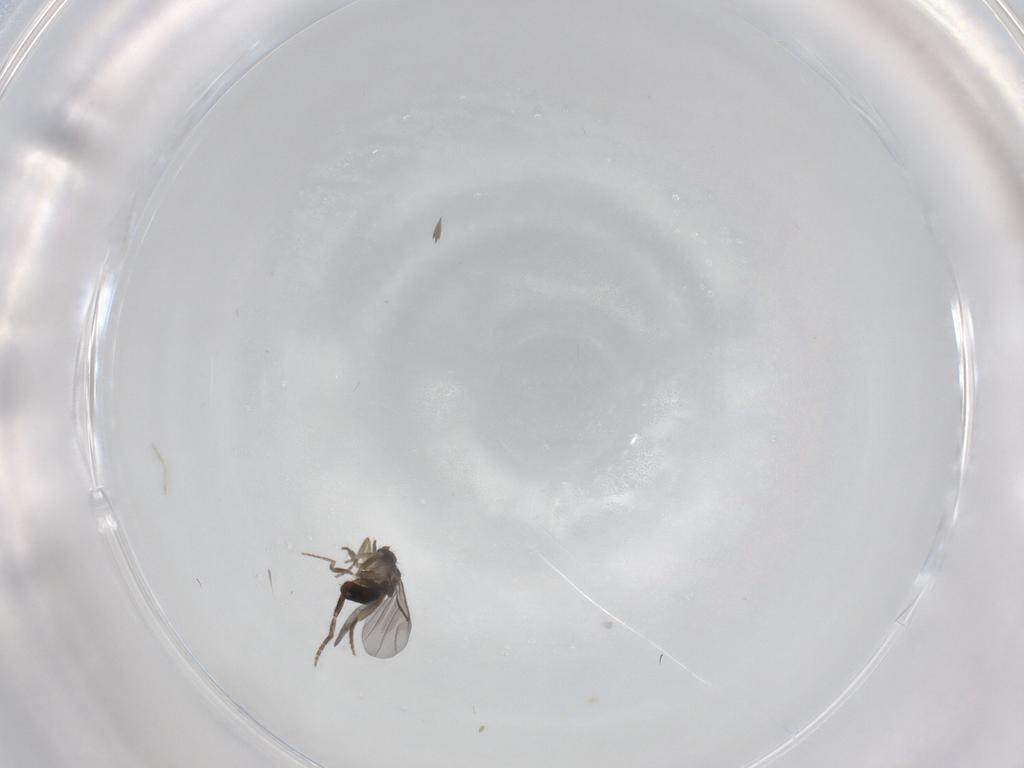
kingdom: Animalia
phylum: Arthropoda
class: Insecta
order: Diptera
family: Phoridae
